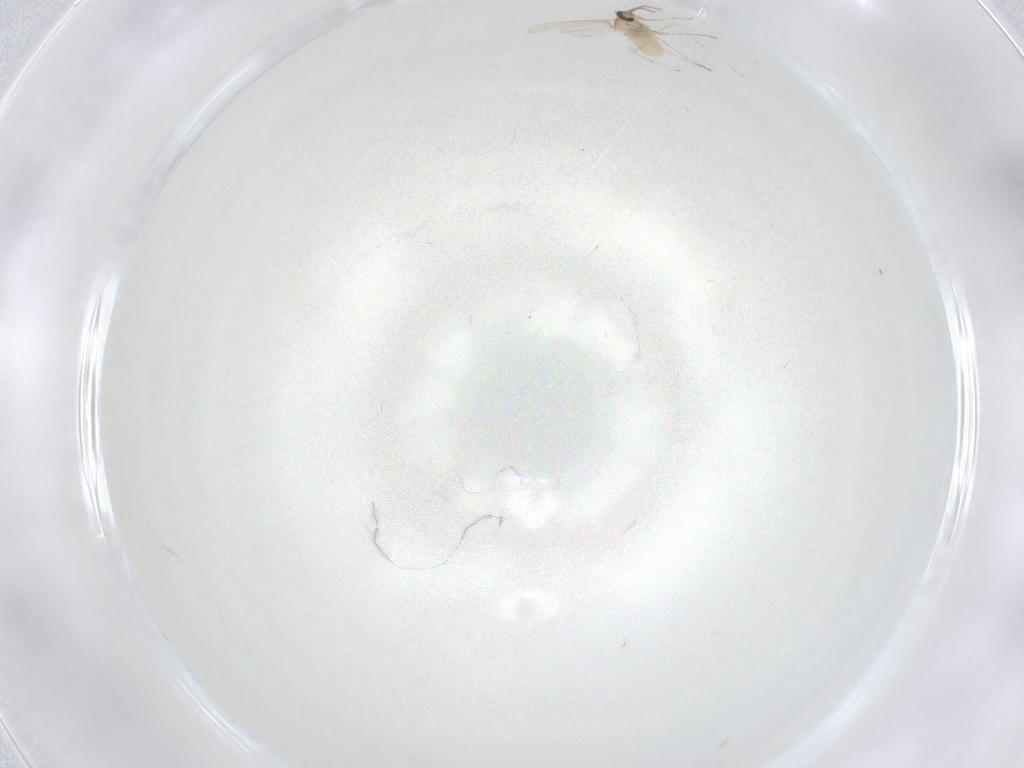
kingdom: Animalia
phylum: Arthropoda
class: Insecta
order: Diptera
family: Cecidomyiidae
